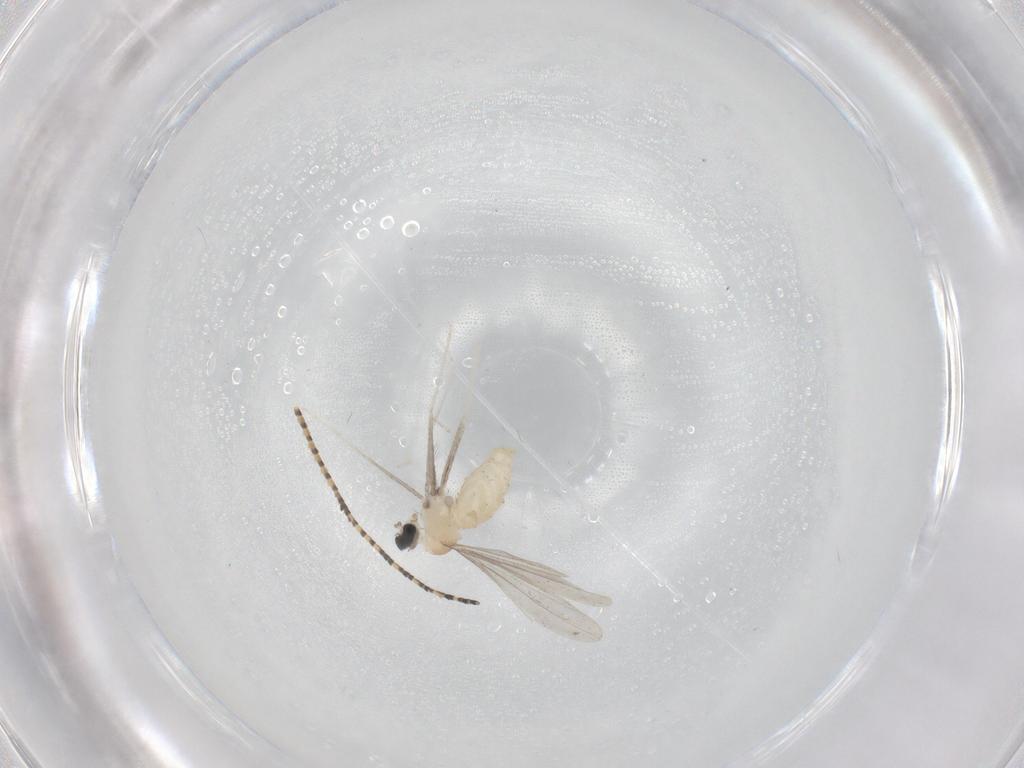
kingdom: Animalia
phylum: Arthropoda
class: Insecta
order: Diptera
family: Cecidomyiidae
